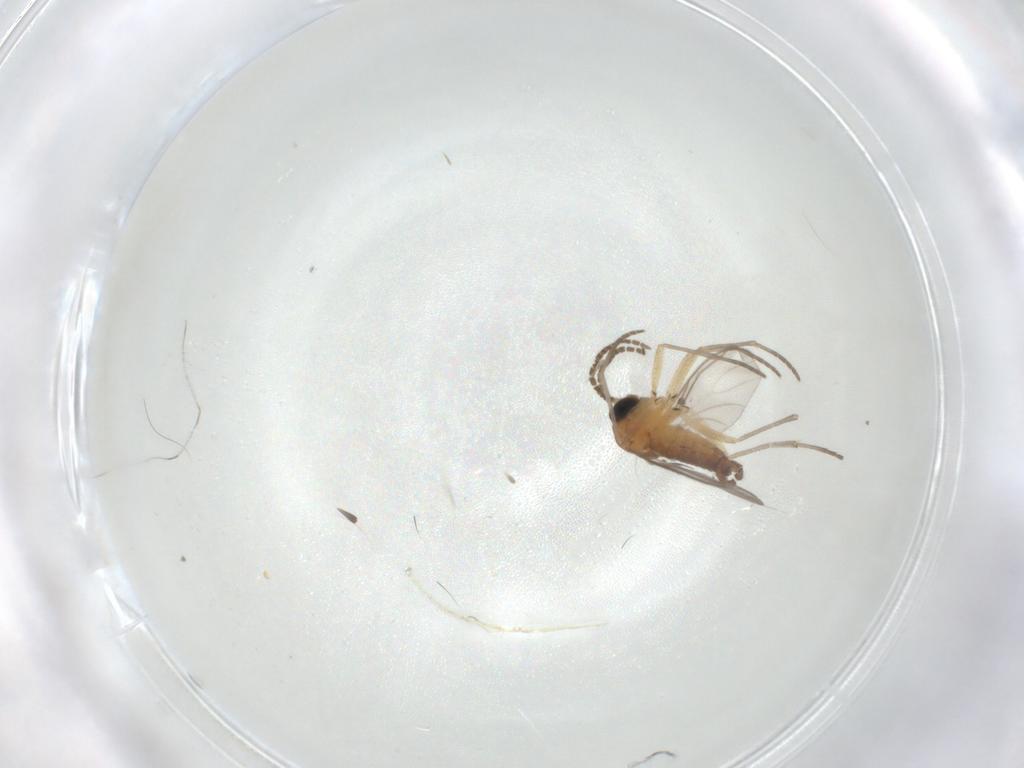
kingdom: Animalia
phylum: Arthropoda
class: Insecta
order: Diptera
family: Sciaridae
